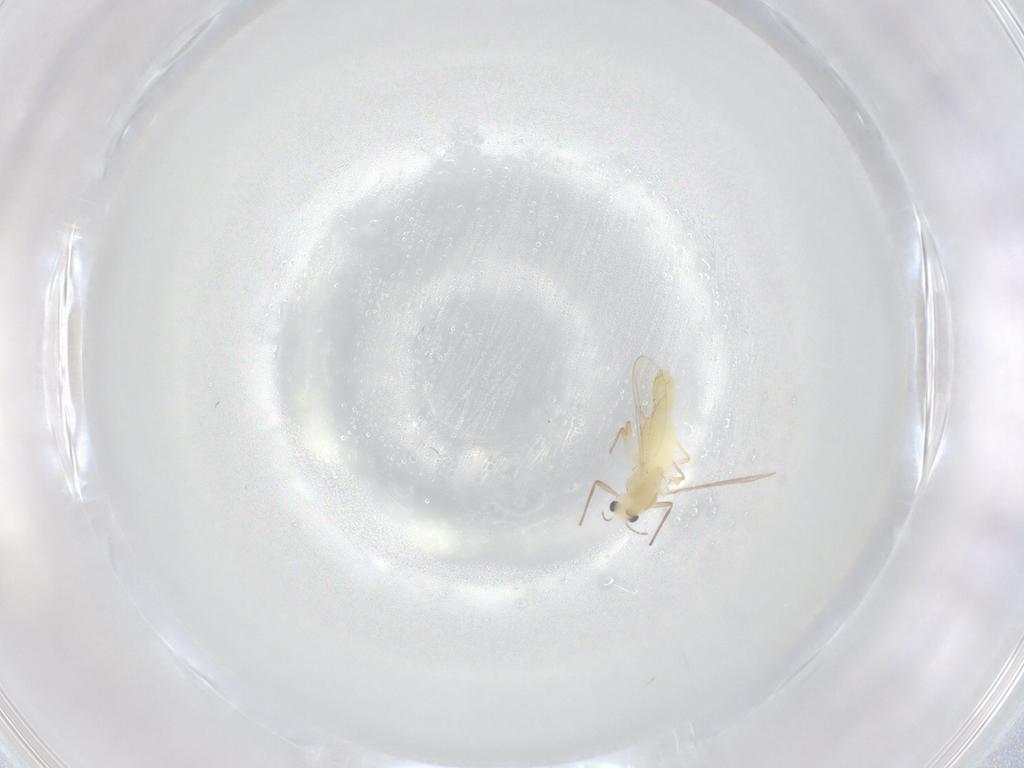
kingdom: Animalia
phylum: Arthropoda
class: Insecta
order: Diptera
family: Chironomidae
